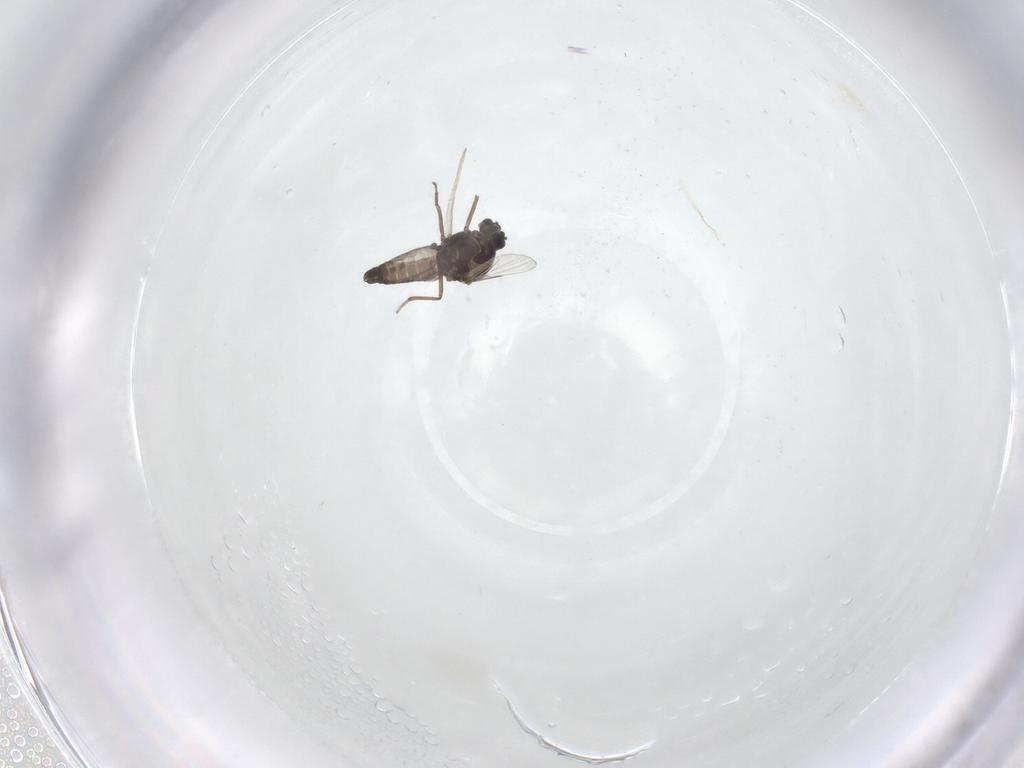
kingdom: Animalia
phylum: Arthropoda
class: Insecta
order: Diptera
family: Ceratopogonidae
